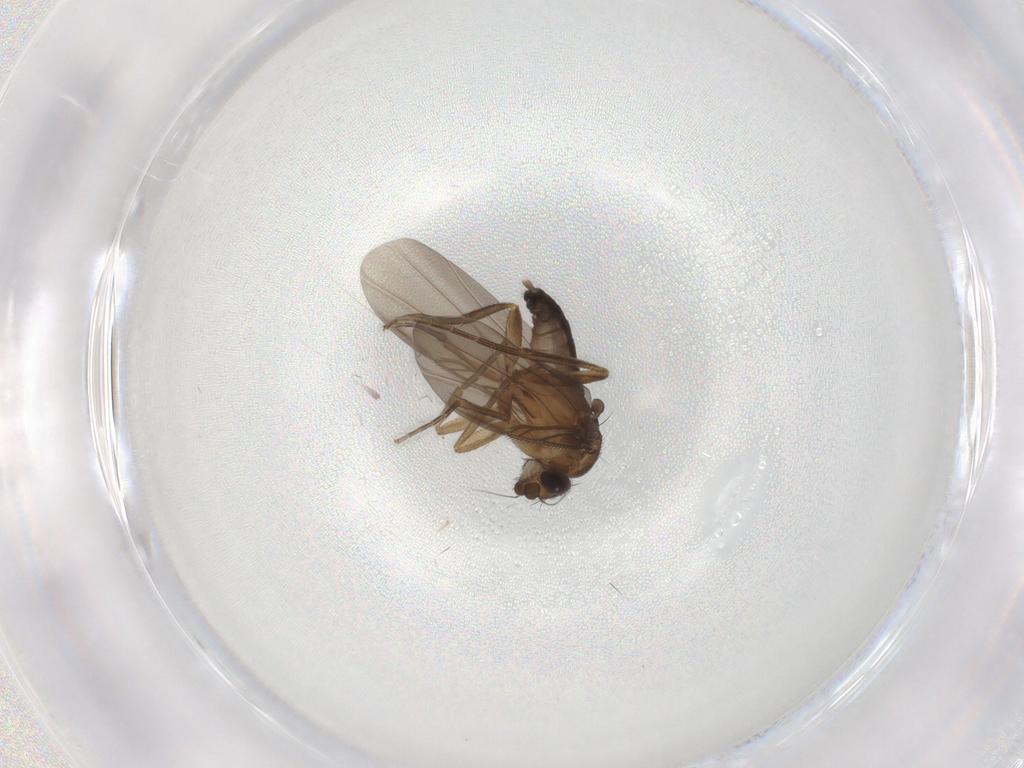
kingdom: Animalia
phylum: Arthropoda
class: Insecta
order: Diptera
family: Phoridae
